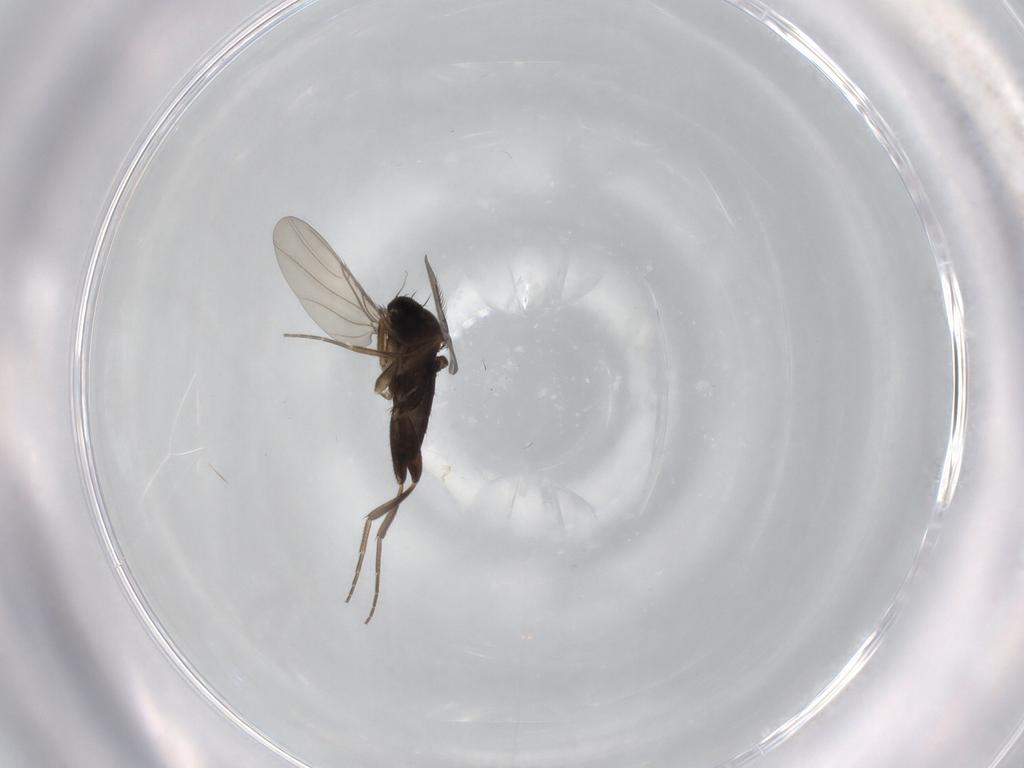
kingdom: Animalia
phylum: Arthropoda
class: Insecta
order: Diptera
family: Phoridae
